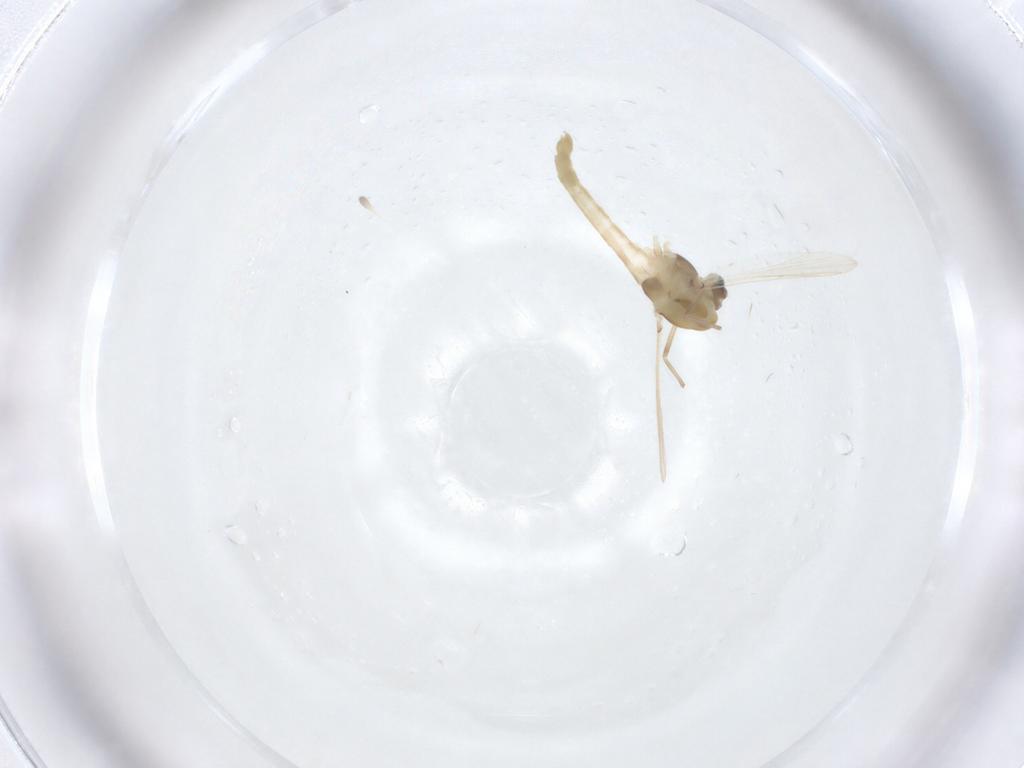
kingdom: Animalia
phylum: Arthropoda
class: Insecta
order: Diptera
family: Chironomidae
